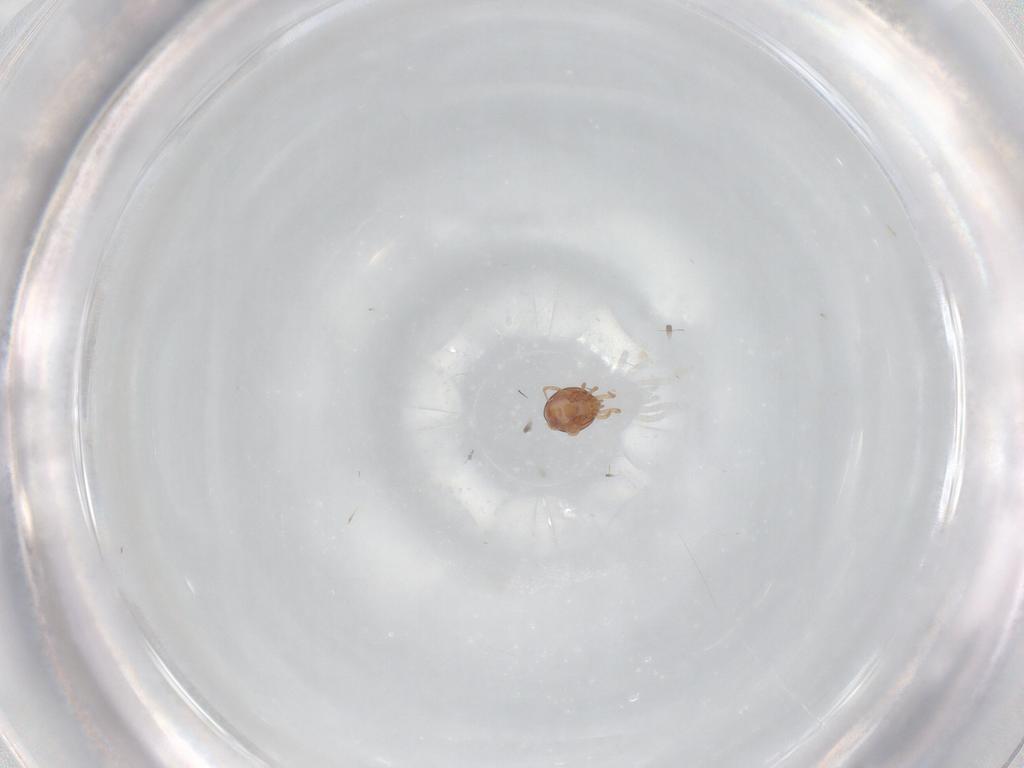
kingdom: Animalia
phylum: Arthropoda
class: Arachnida
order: Mesostigmata
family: Phytoseiidae
